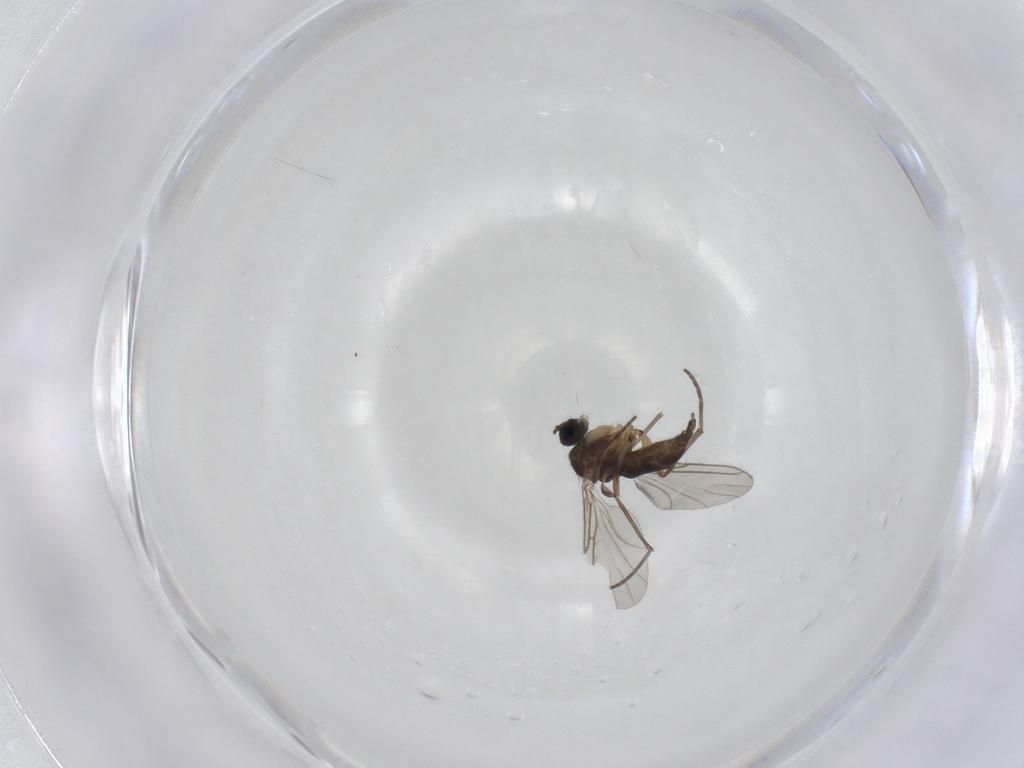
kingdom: Animalia
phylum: Arthropoda
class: Insecta
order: Diptera
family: Sciaridae
